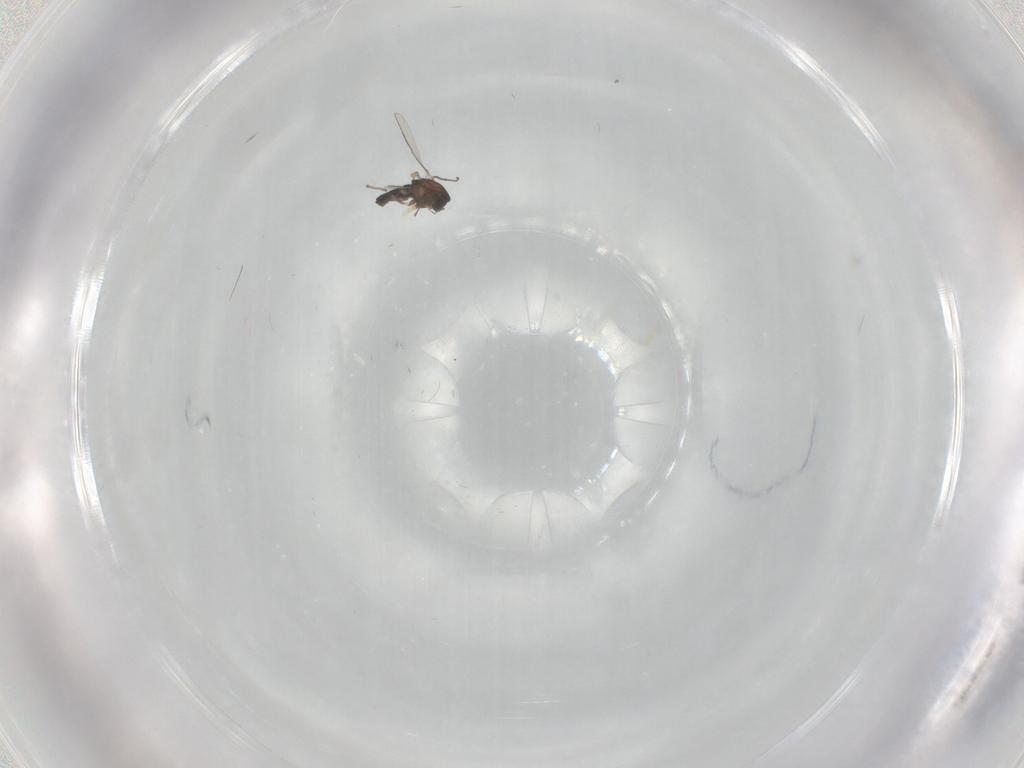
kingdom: Animalia
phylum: Arthropoda
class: Insecta
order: Diptera
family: Chironomidae
